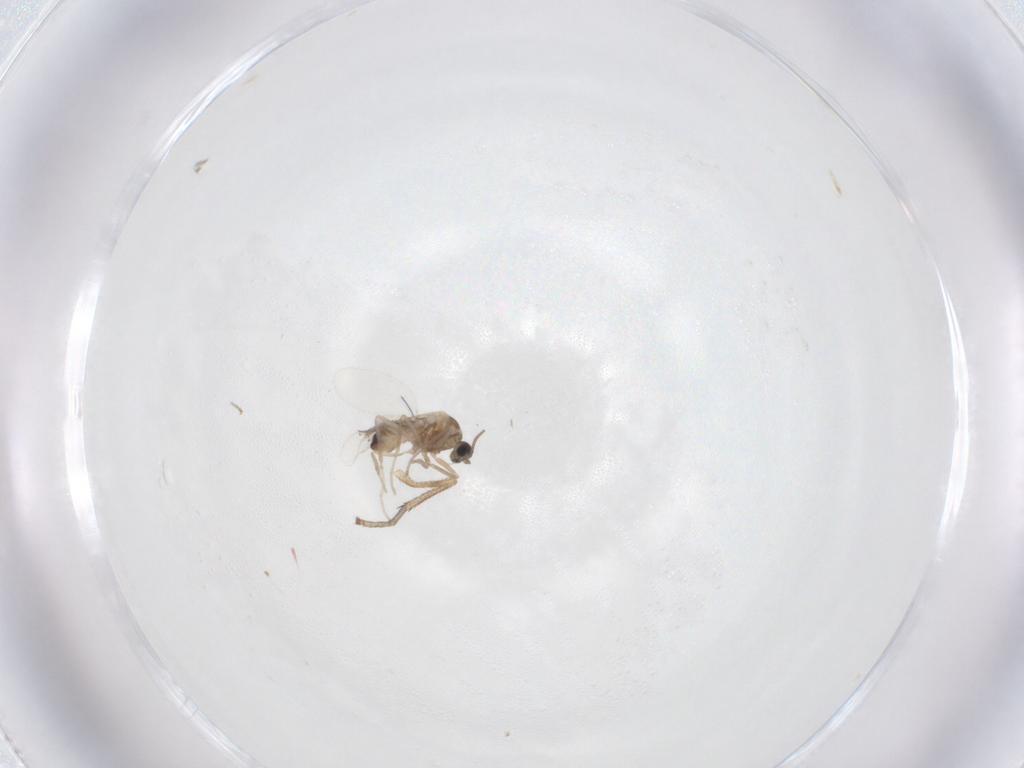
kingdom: Animalia
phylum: Arthropoda
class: Insecta
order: Diptera
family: Cecidomyiidae
